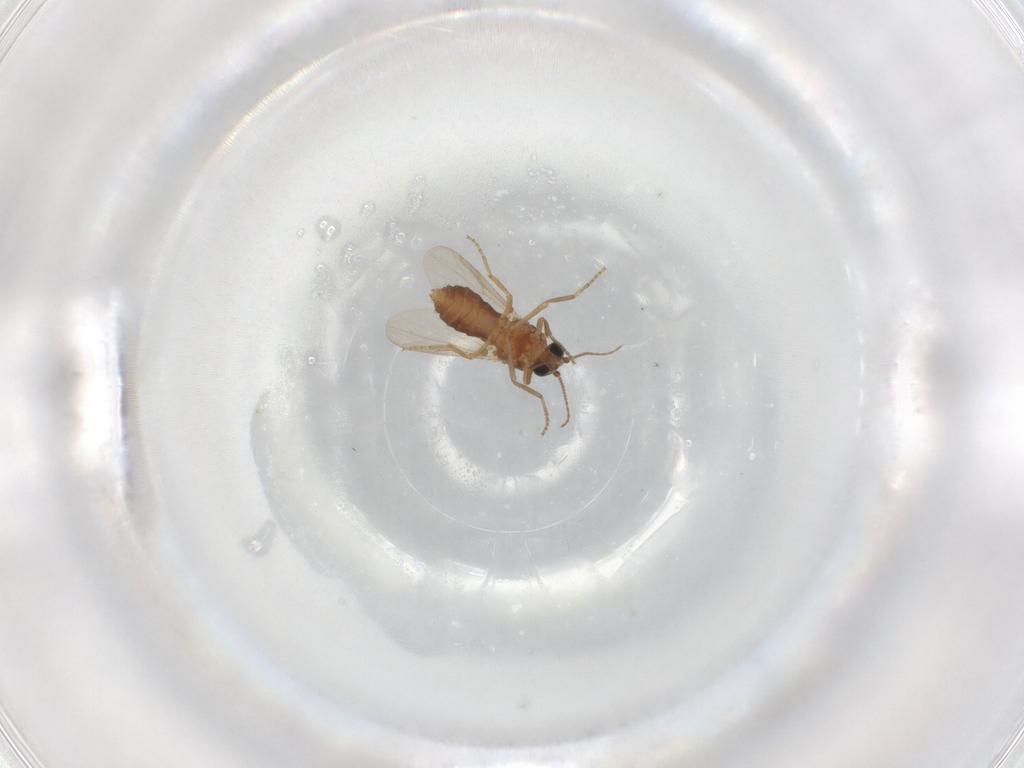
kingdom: Animalia
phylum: Arthropoda
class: Insecta
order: Diptera
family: Ceratopogonidae
